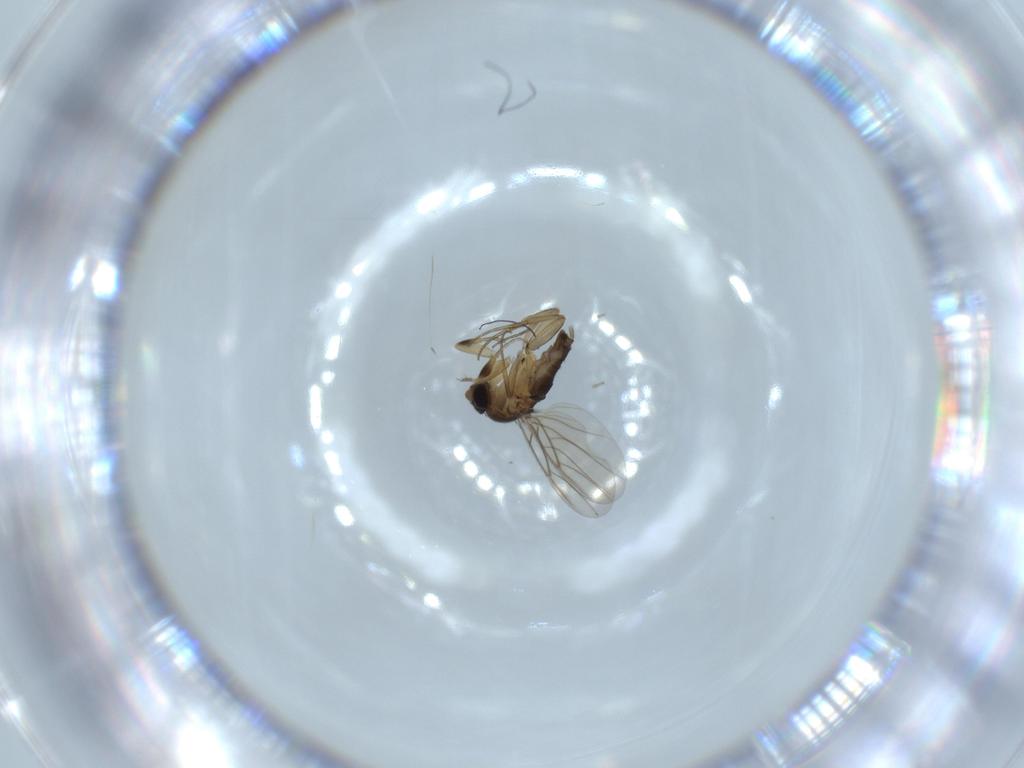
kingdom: Animalia
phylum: Arthropoda
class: Insecta
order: Diptera
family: Phoridae
